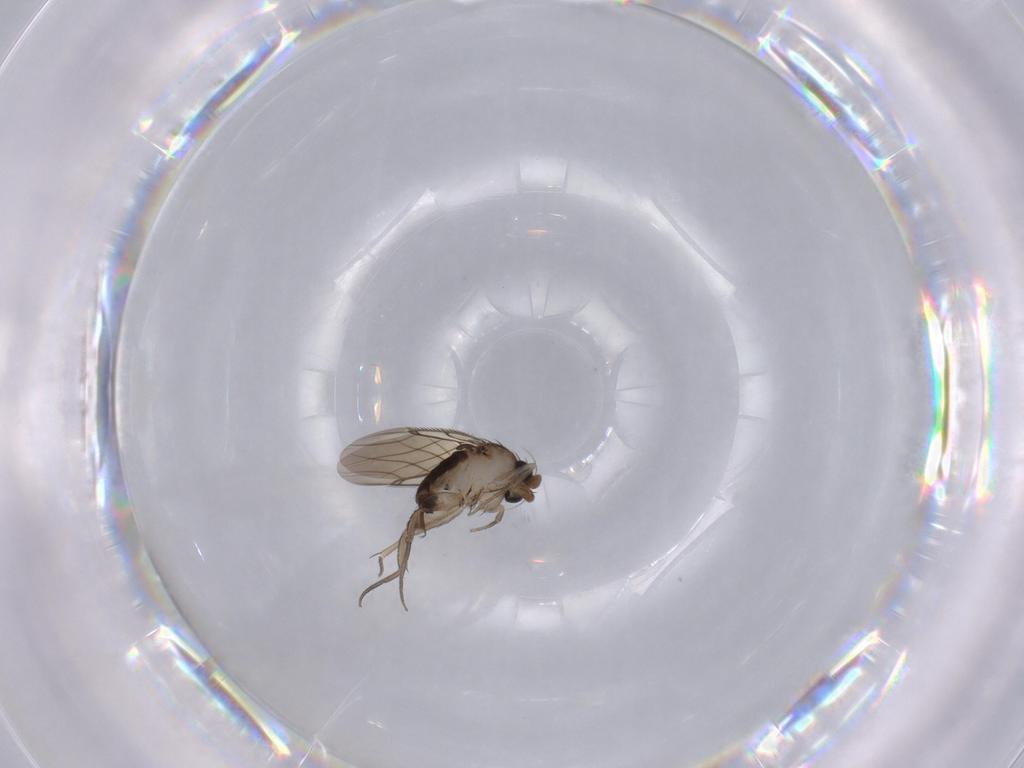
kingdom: Animalia
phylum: Arthropoda
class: Insecta
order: Diptera
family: Phoridae
